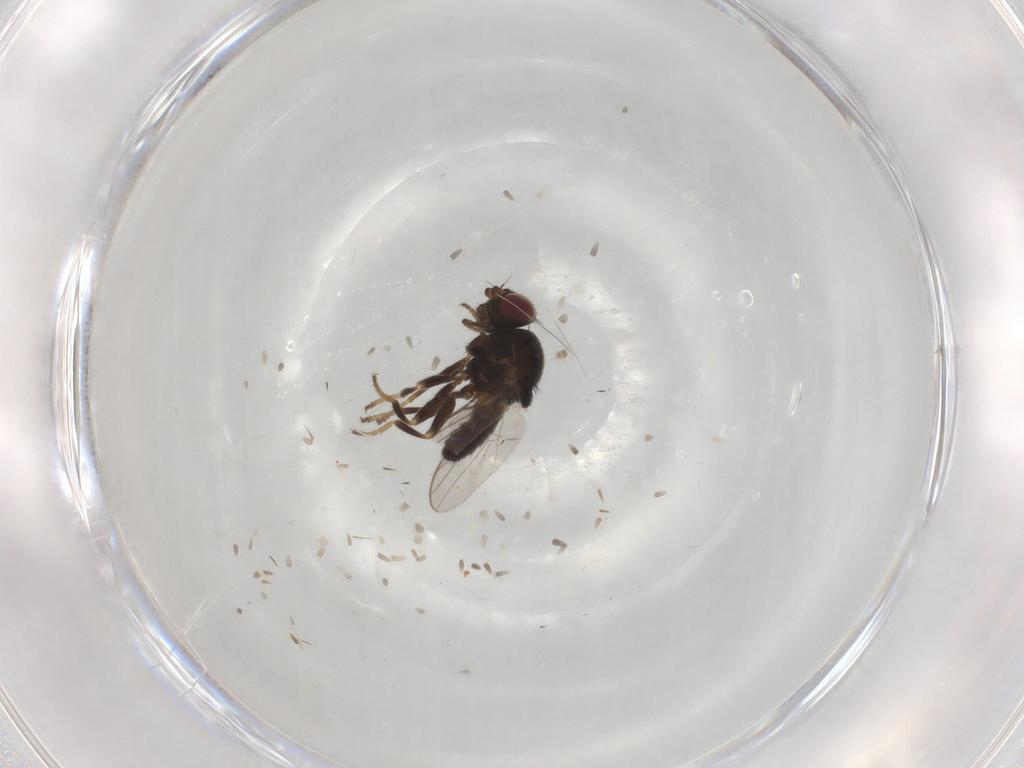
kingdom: Animalia
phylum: Arthropoda
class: Insecta
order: Diptera
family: Chloropidae
